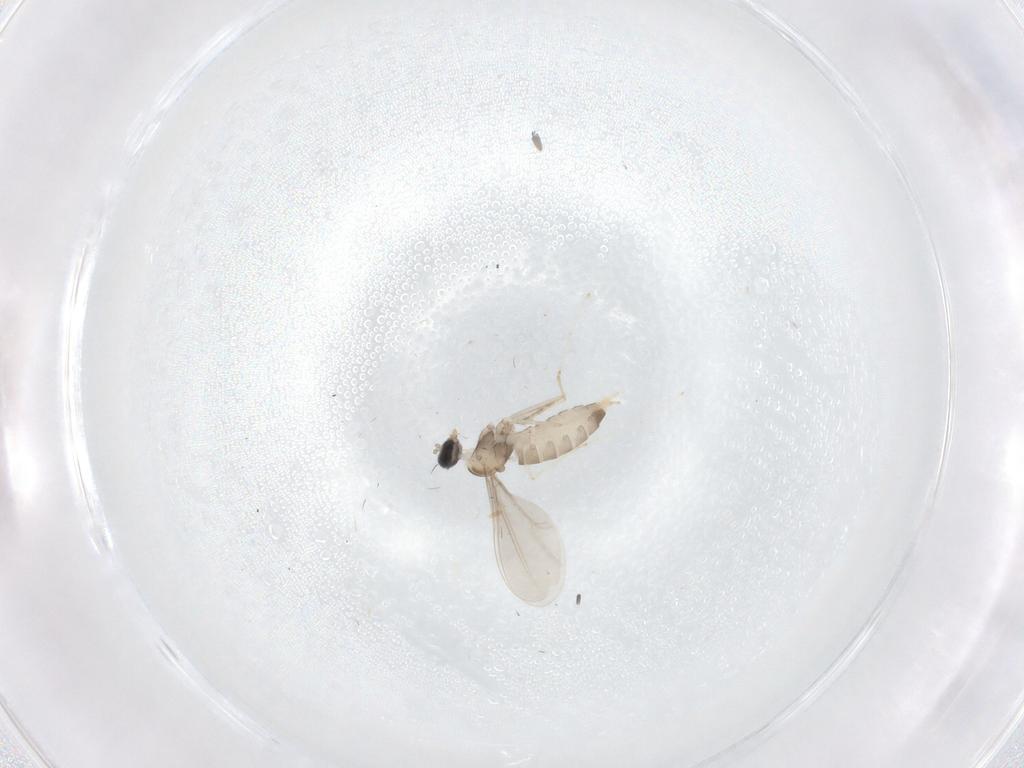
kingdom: Animalia
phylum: Arthropoda
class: Insecta
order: Diptera
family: Cecidomyiidae
